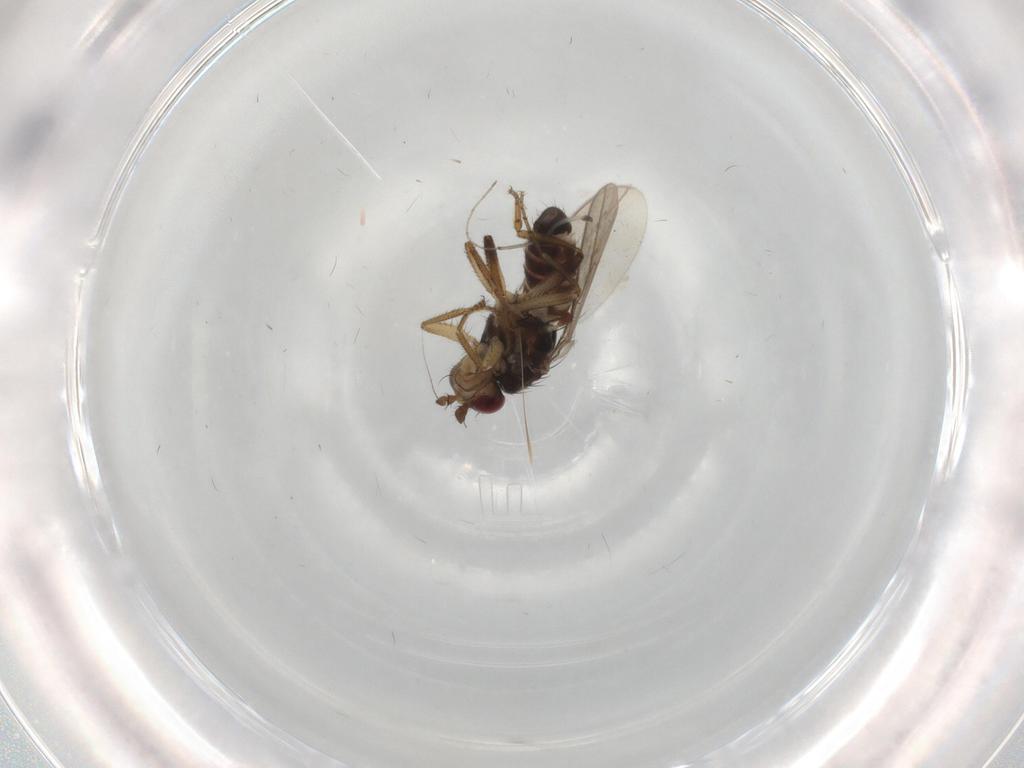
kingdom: Animalia
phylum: Arthropoda
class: Insecta
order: Diptera
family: Sphaeroceridae
